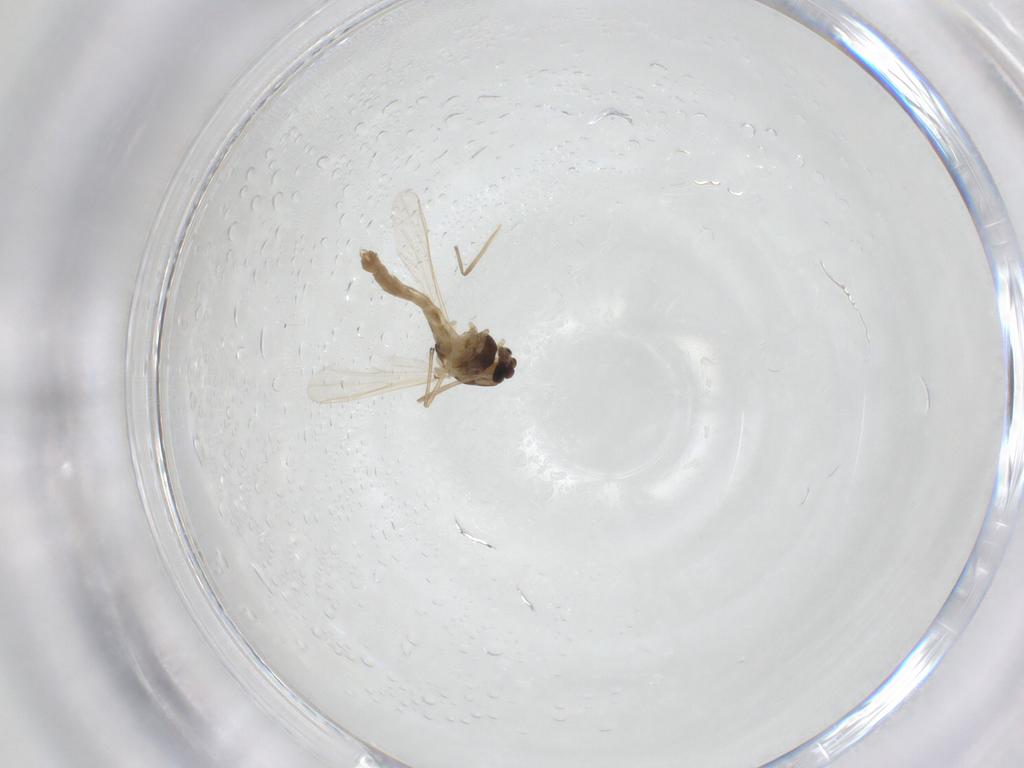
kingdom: Animalia
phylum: Arthropoda
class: Insecta
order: Diptera
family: Chironomidae
